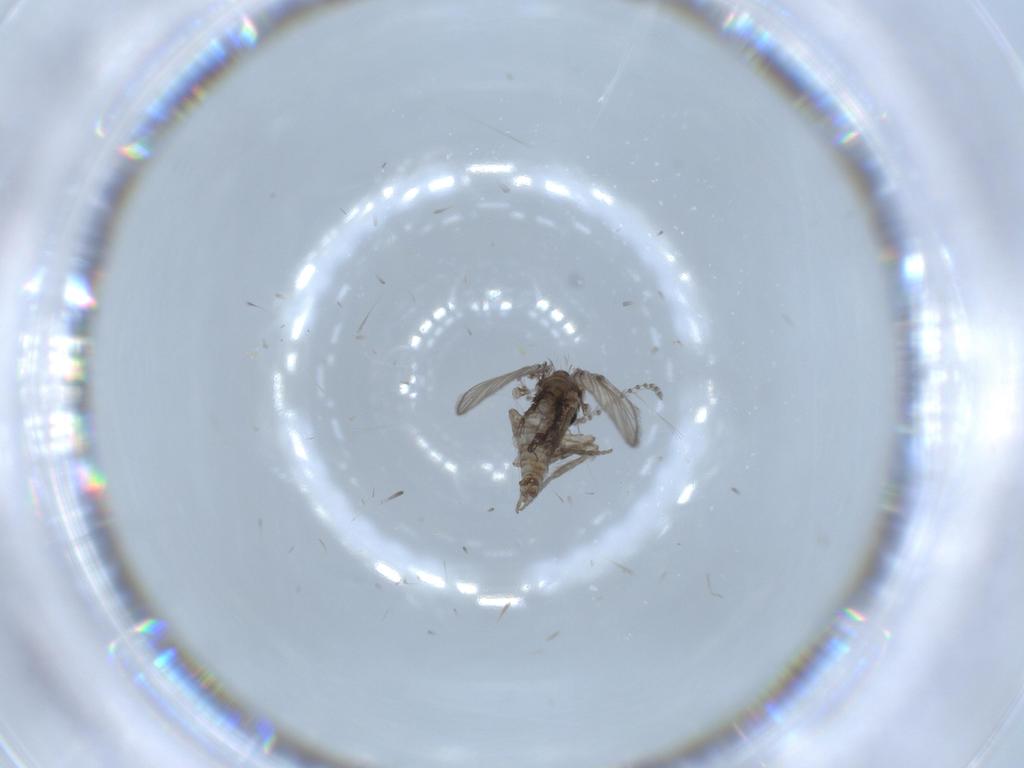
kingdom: Animalia
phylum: Arthropoda
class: Insecta
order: Diptera
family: Psychodidae
